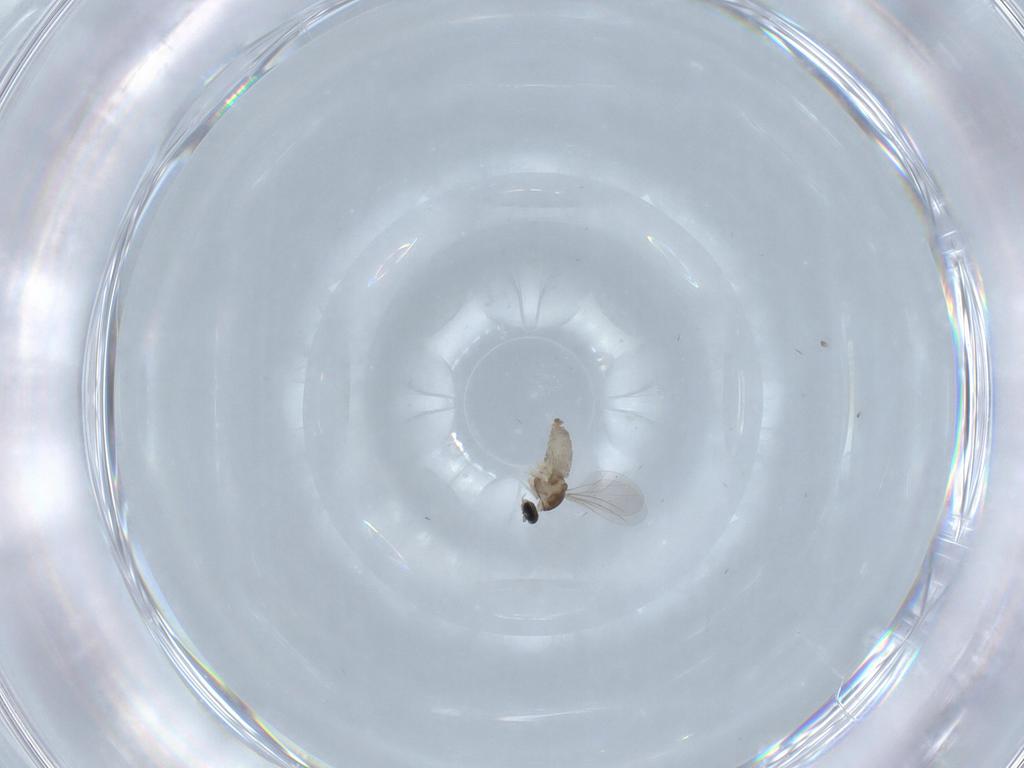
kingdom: Animalia
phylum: Arthropoda
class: Insecta
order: Diptera
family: Cecidomyiidae
